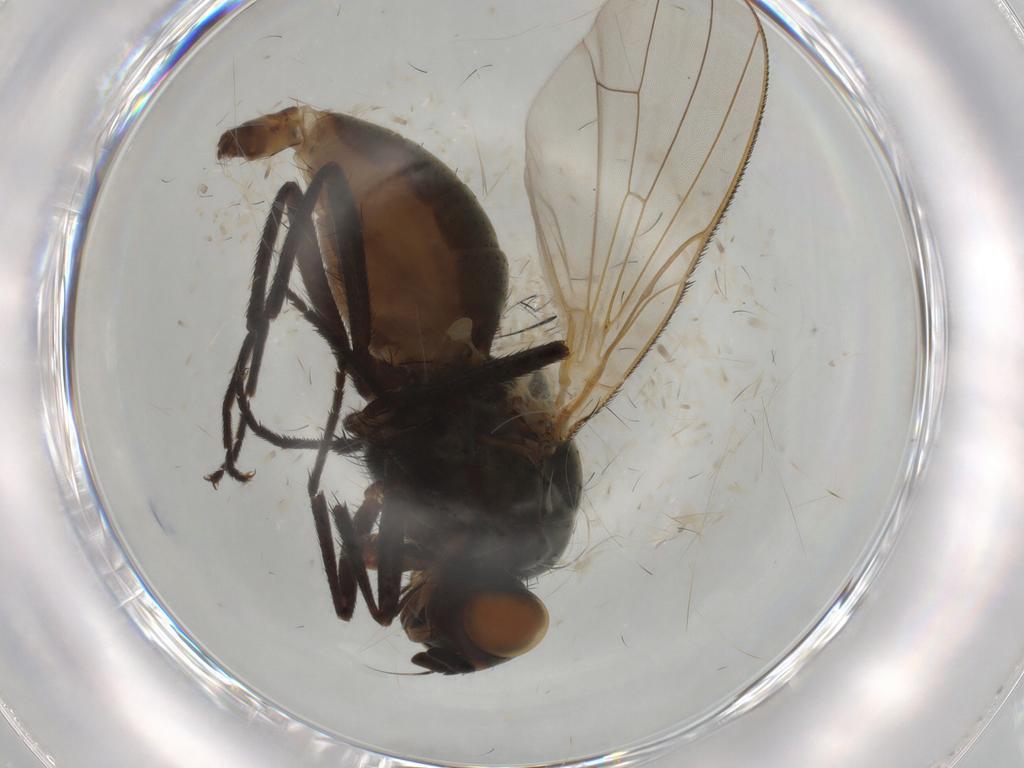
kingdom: Animalia
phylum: Arthropoda
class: Insecta
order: Diptera
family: Anthomyiidae
